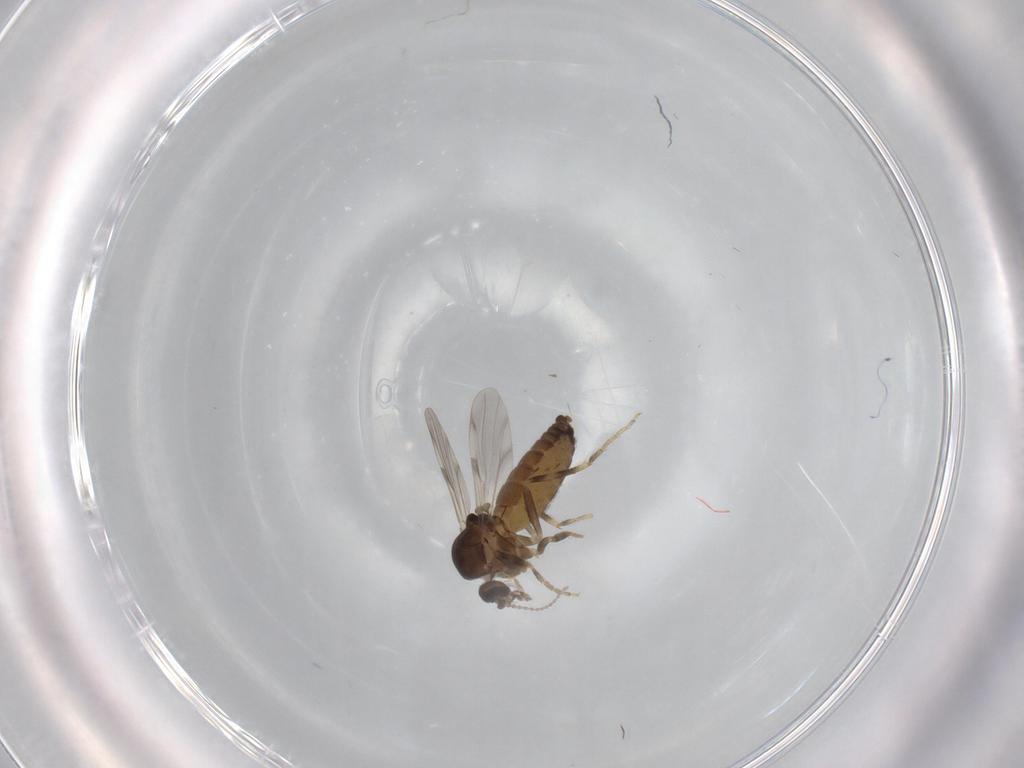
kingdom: Animalia
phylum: Arthropoda
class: Insecta
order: Diptera
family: Ceratopogonidae
